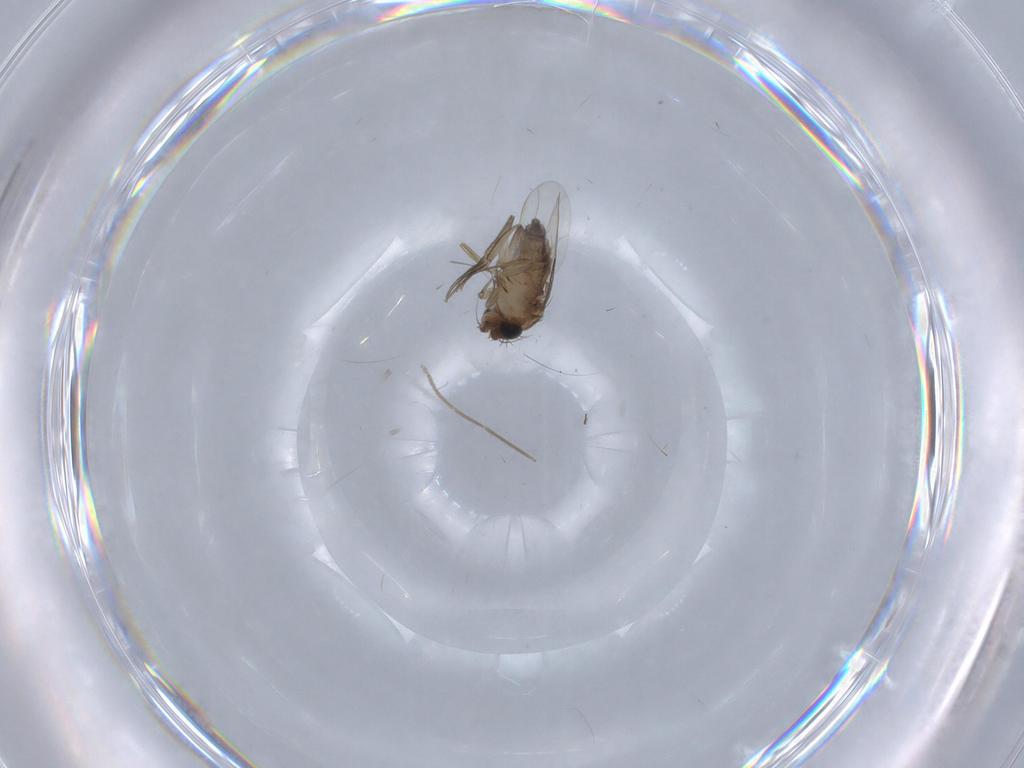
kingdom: Animalia
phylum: Arthropoda
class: Insecta
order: Diptera
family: Phoridae
